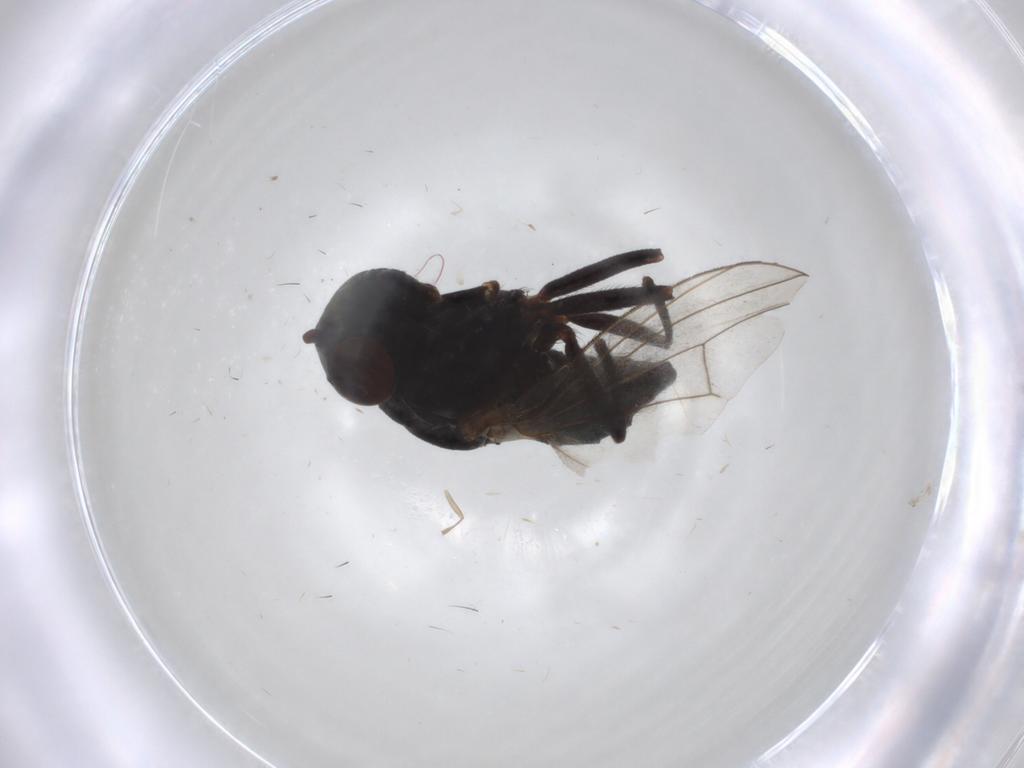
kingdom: Animalia
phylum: Arthropoda
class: Insecta
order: Diptera
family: Ephydridae
